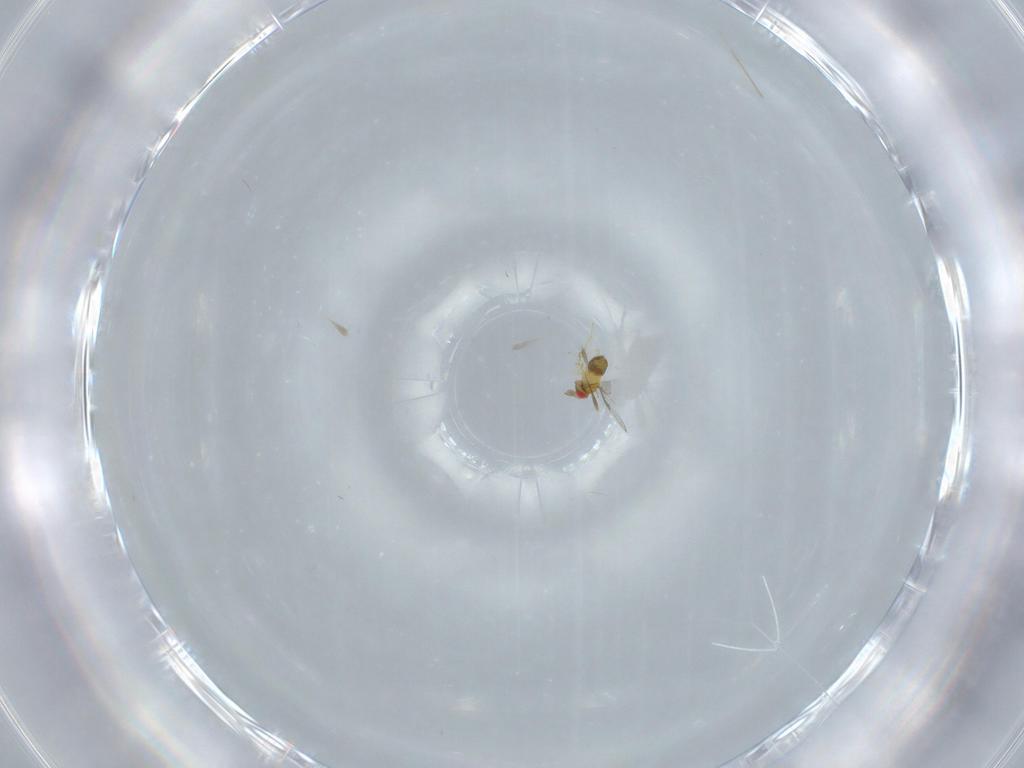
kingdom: Animalia
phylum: Arthropoda
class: Insecta
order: Hymenoptera
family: Trichogrammatidae
